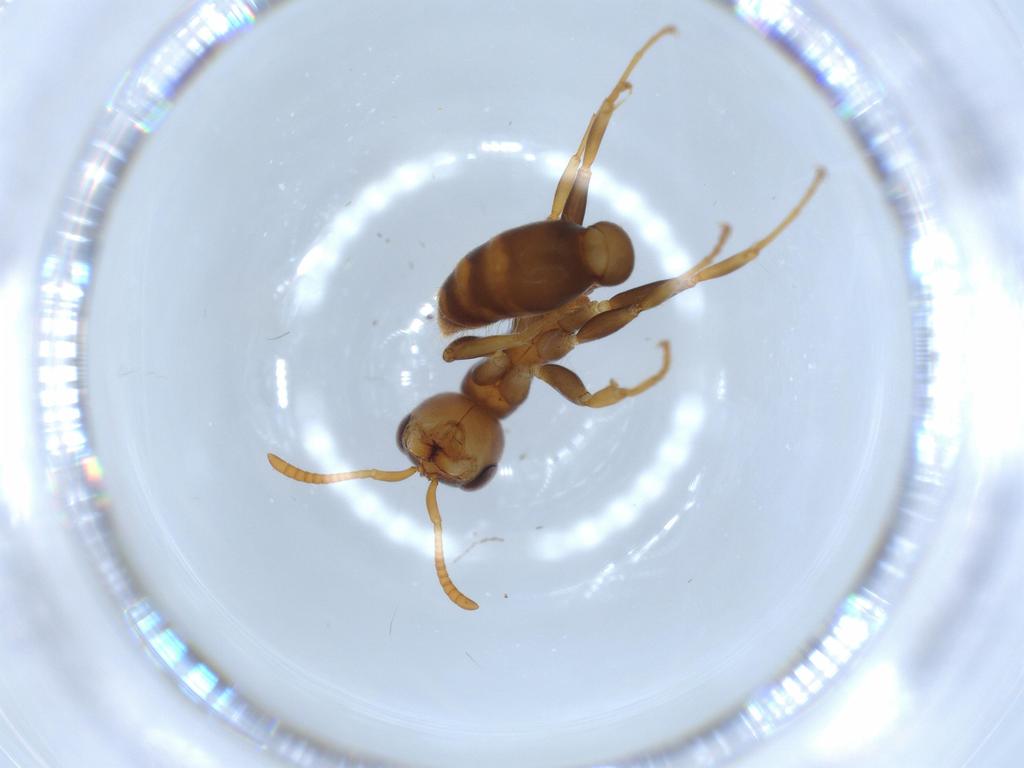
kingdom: Animalia
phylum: Arthropoda
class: Insecta
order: Hymenoptera
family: Formicidae
